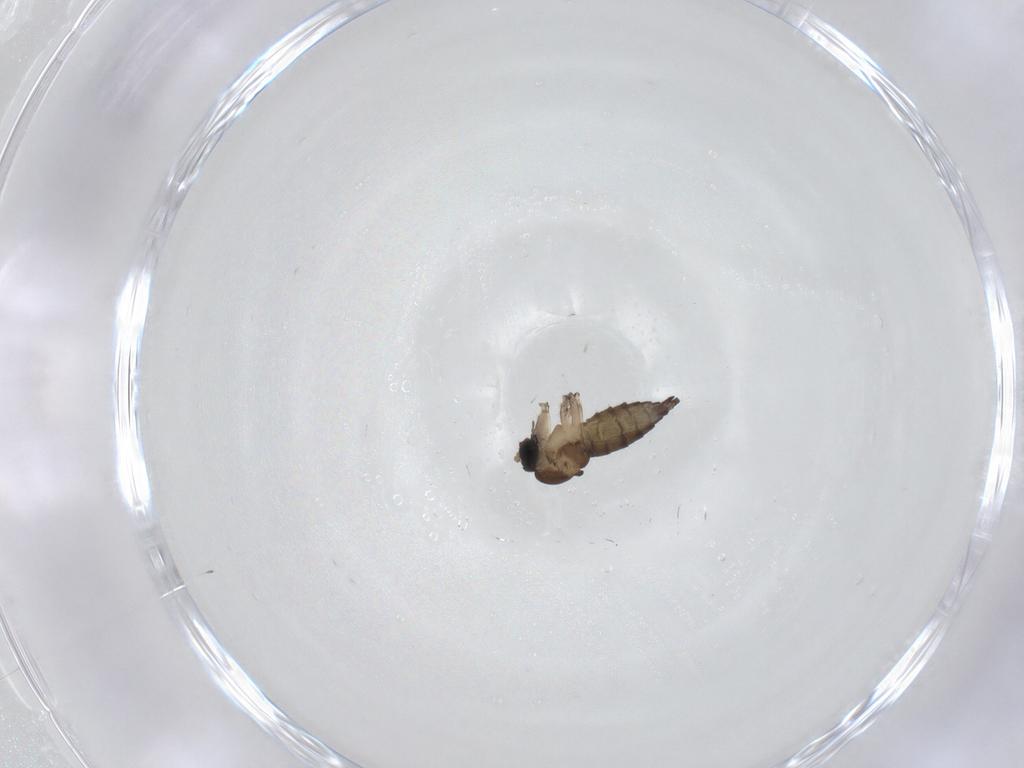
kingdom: Animalia
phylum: Arthropoda
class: Insecta
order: Diptera
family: Sciaridae
